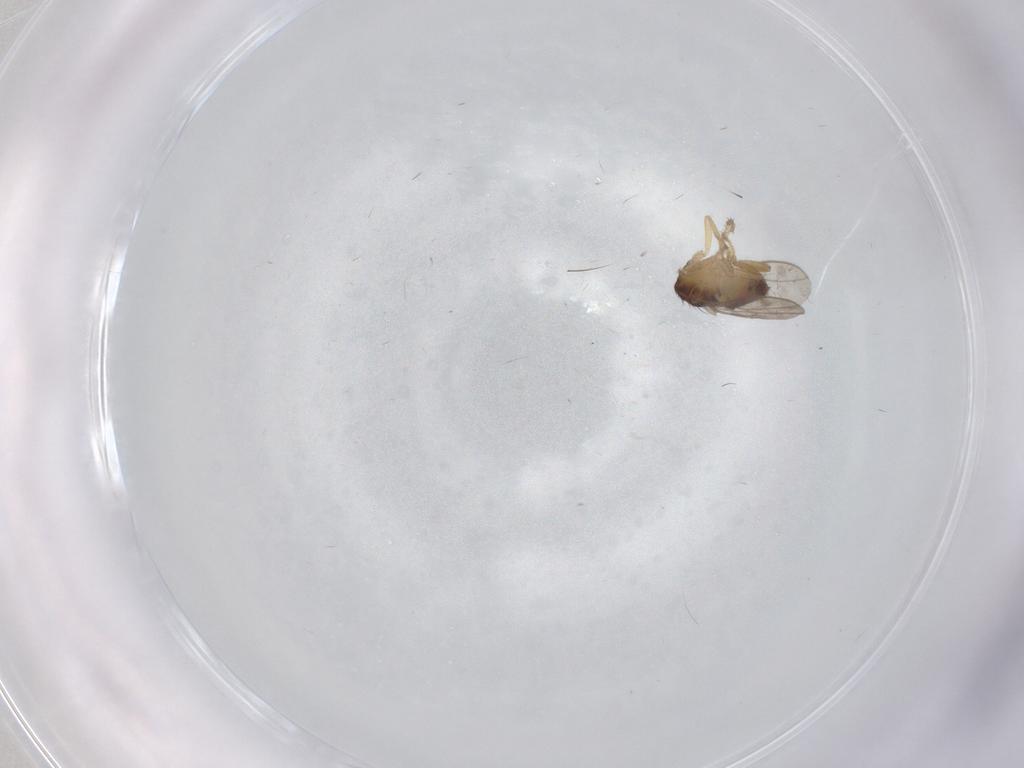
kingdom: Animalia
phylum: Arthropoda
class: Insecta
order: Diptera
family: Sphaeroceridae
